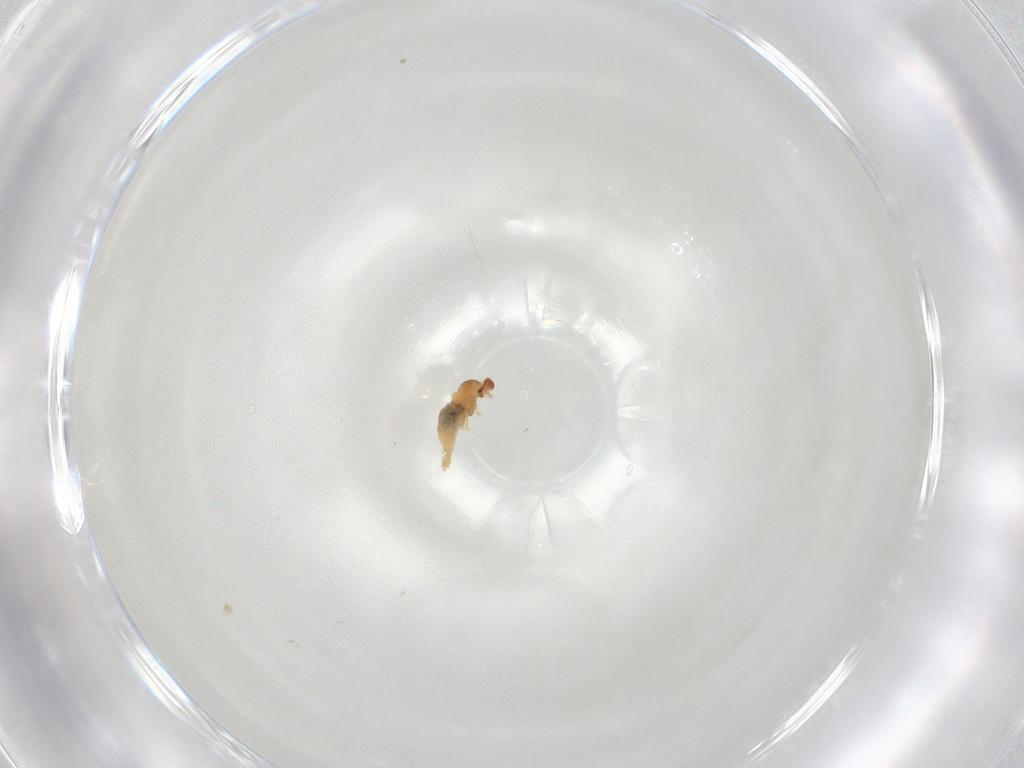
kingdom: Animalia
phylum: Arthropoda
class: Insecta
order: Diptera
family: Cecidomyiidae
